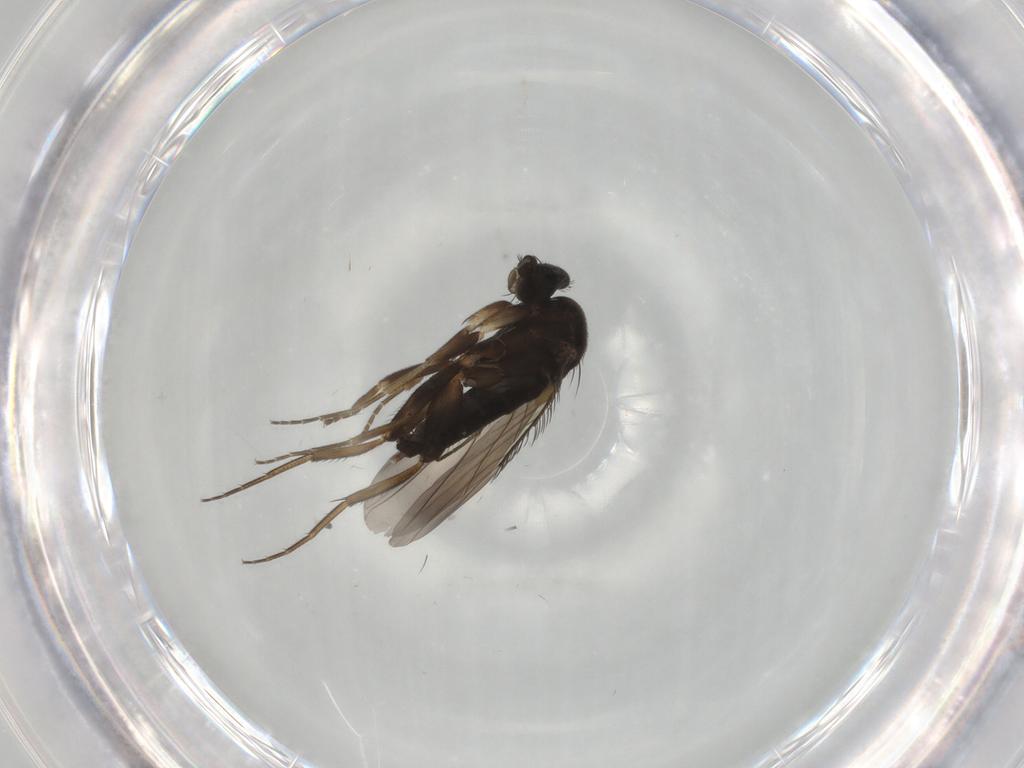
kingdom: Animalia
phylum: Arthropoda
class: Insecta
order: Diptera
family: Phoridae
